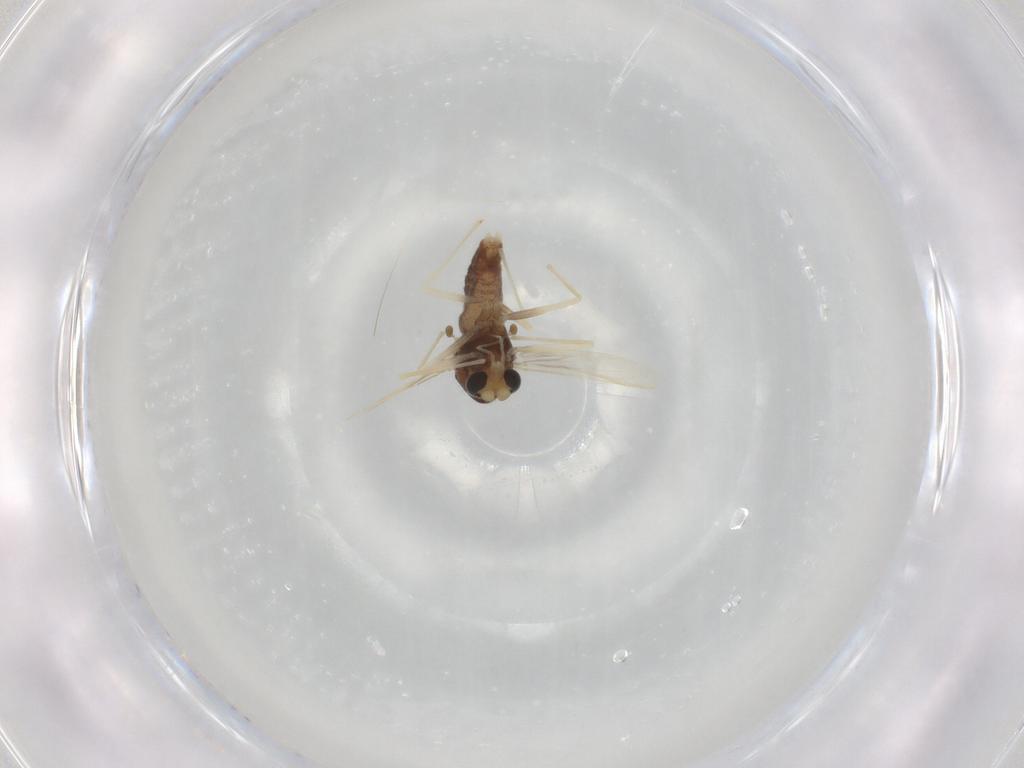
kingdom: Animalia
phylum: Arthropoda
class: Insecta
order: Diptera
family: Chironomidae
